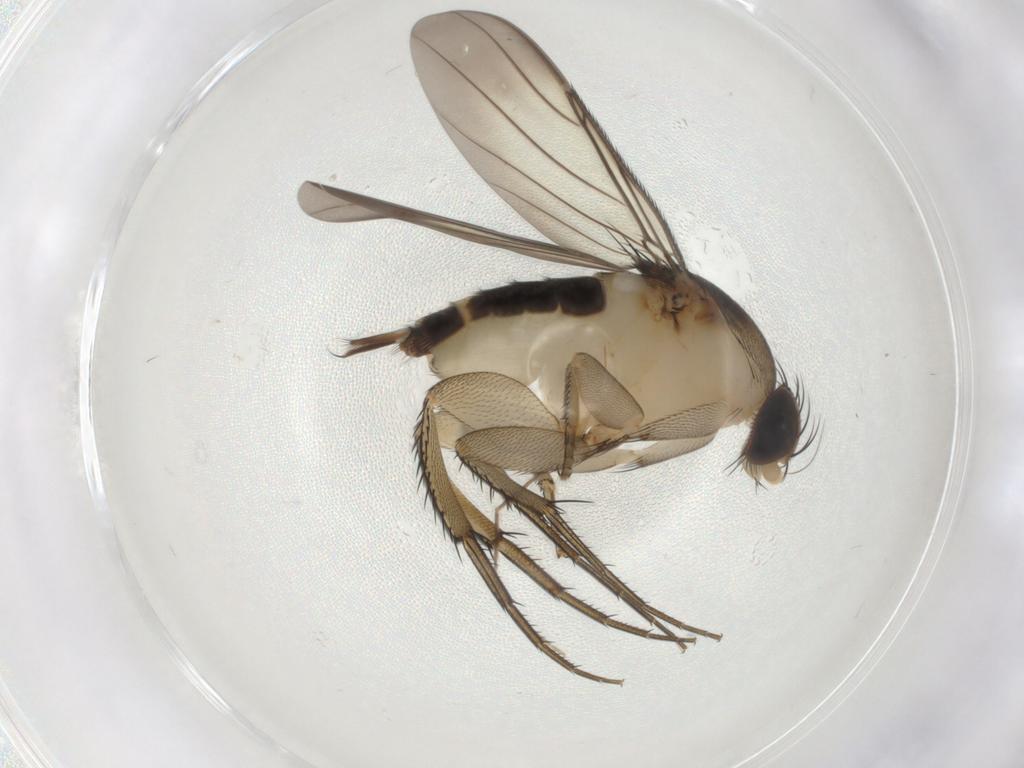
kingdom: Animalia
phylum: Arthropoda
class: Insecta
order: Diptera
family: Phoridae
